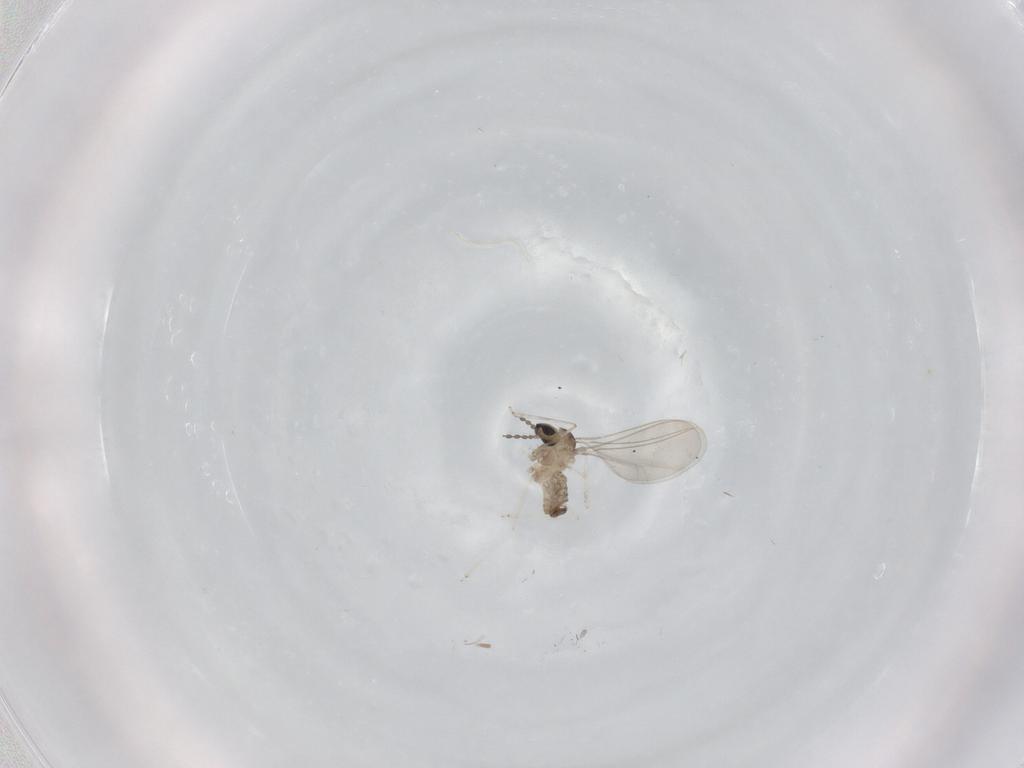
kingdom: Animalia
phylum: Arthropoda
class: Insecta
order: Diptera
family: Cecidomyiidae
